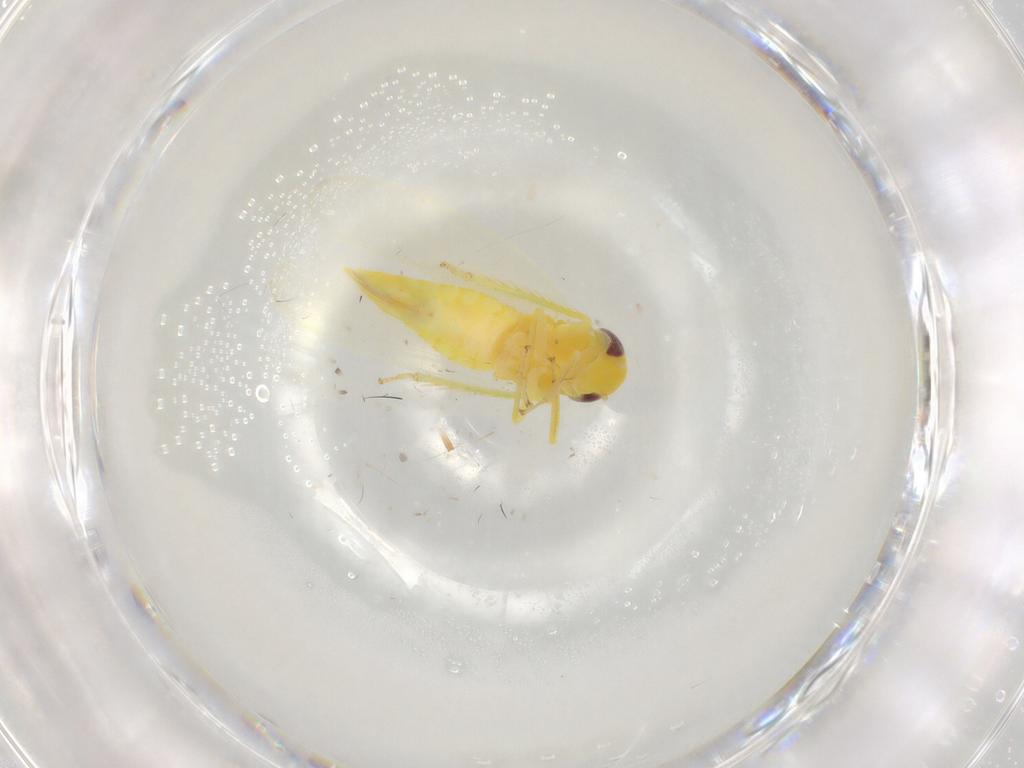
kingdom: Animalia
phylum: Arthropoda
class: Insecta
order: Hemiptera
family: Cicadellidae
